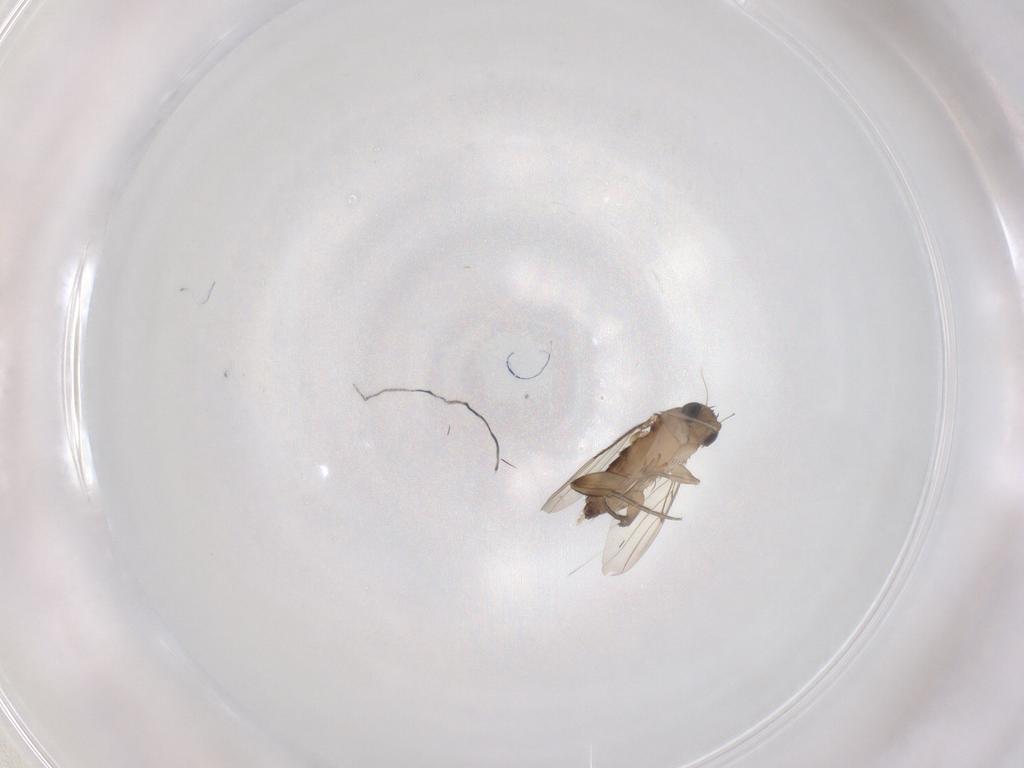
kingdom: Animalia
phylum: Arthropoda
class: Insecta
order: Diptera
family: Phoridae
